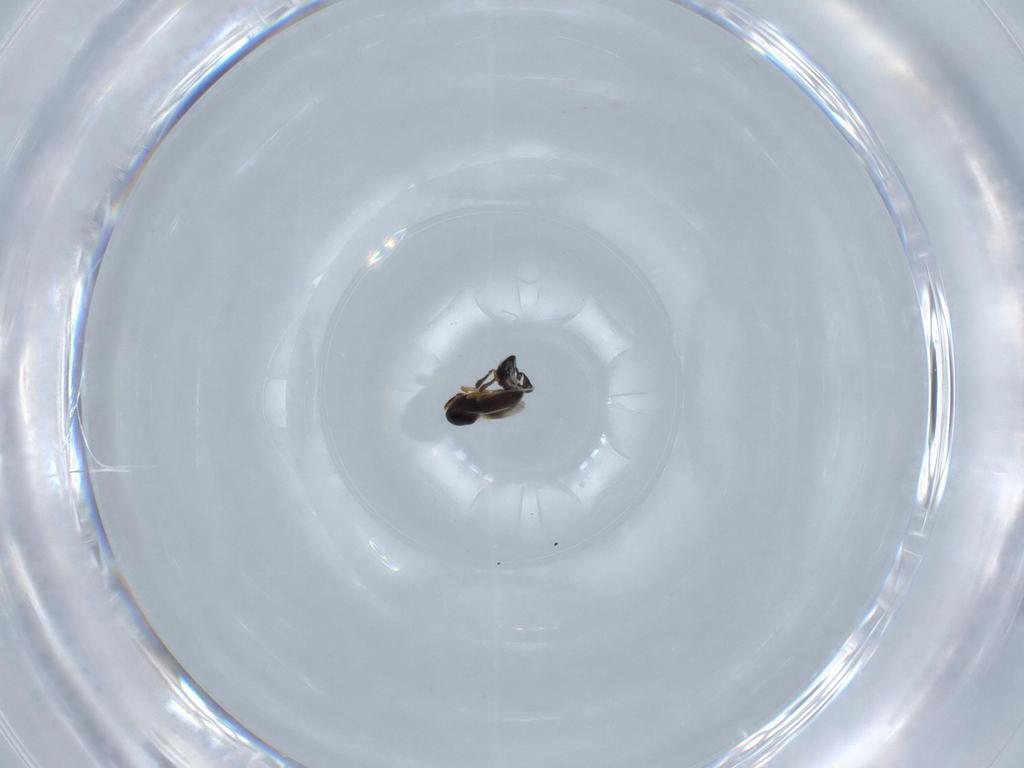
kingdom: Animalia
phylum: Arthropoda
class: Insecta
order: Hymenoptera
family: Scelionidae
